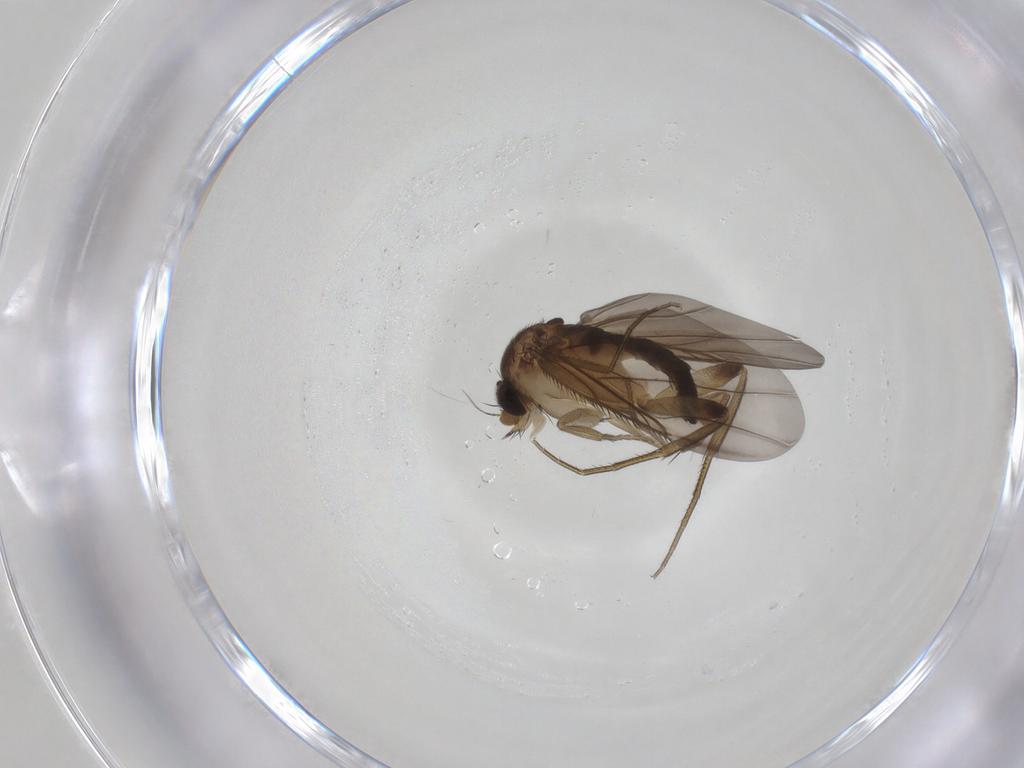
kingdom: Animalia
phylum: Arthropoda
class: Insecta
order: Diptera
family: Phoridae
